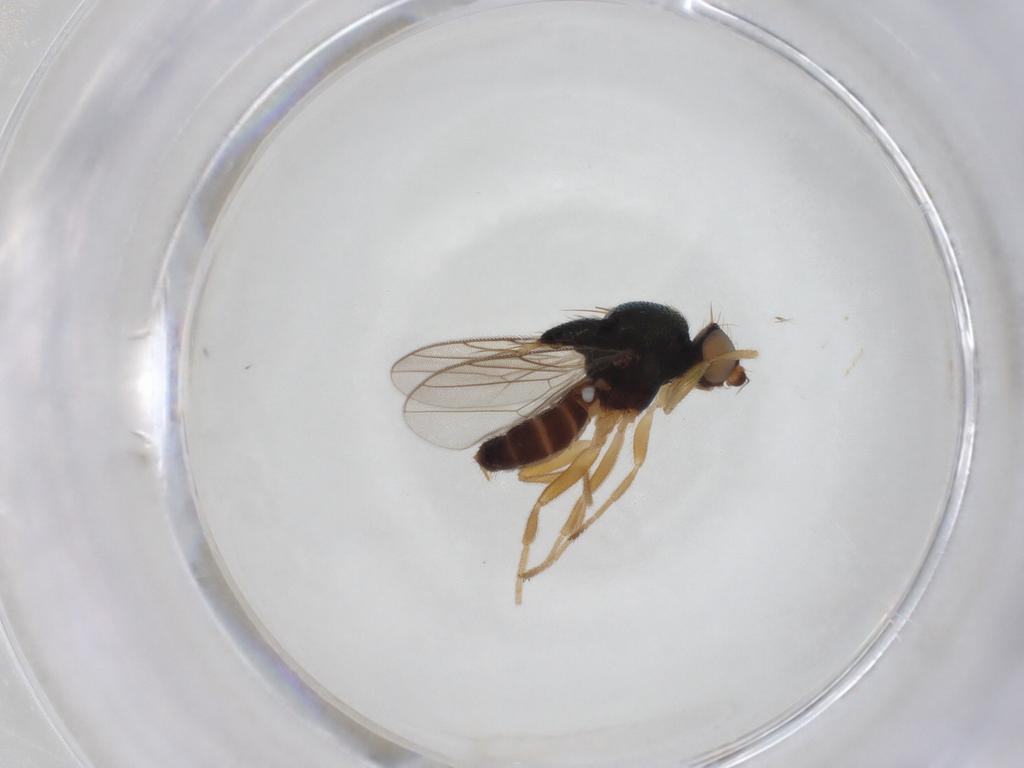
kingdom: Animalia
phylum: Arthropoda
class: Insecta
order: Diptera
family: Chloropidae
